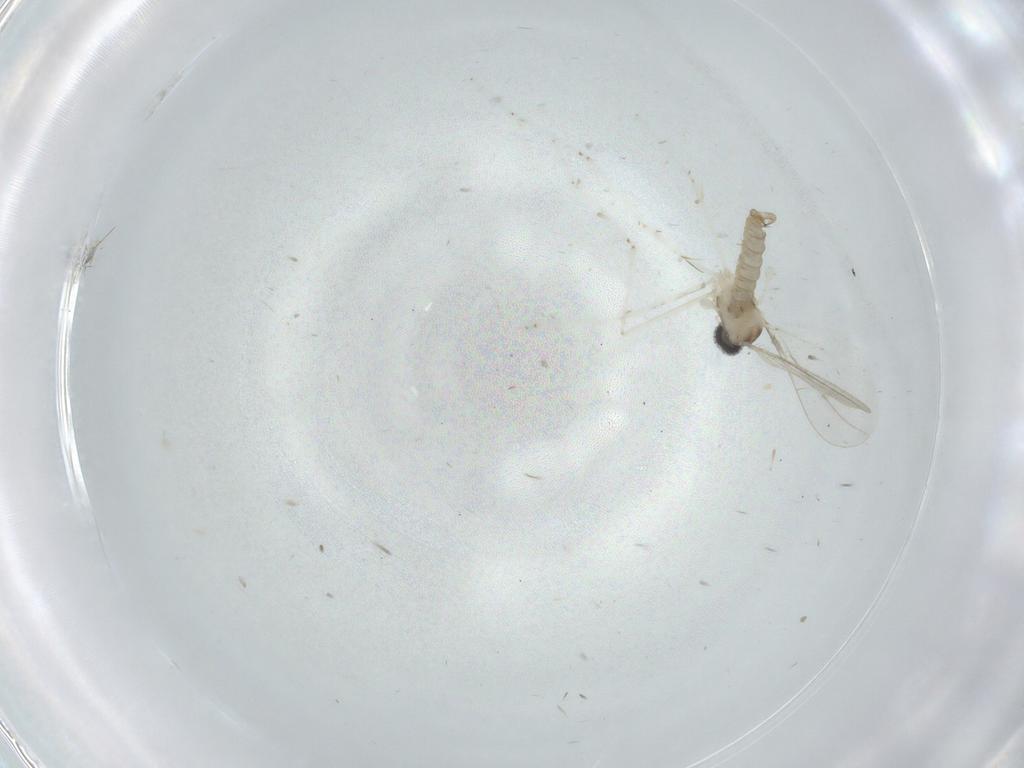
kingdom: Animalia
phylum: Arthropoda
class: Insecta
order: Diptera
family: Cecidomyiidae
